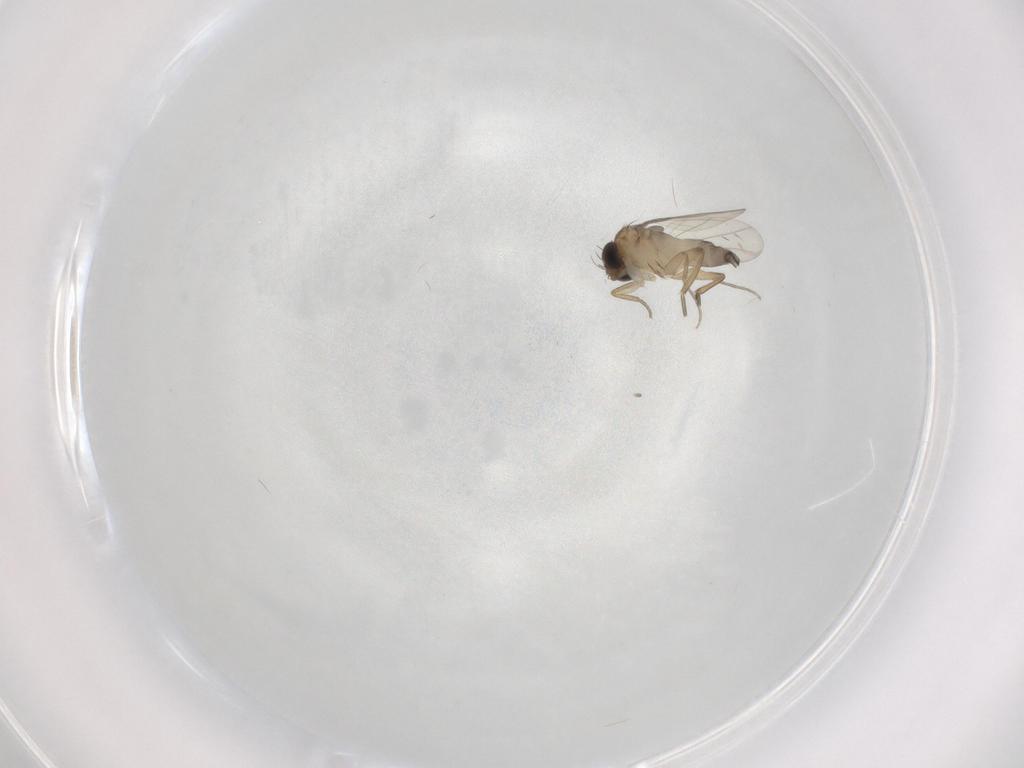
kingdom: Animalia
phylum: Arthropoda
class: Insecta
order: Diptera
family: Phoridae
